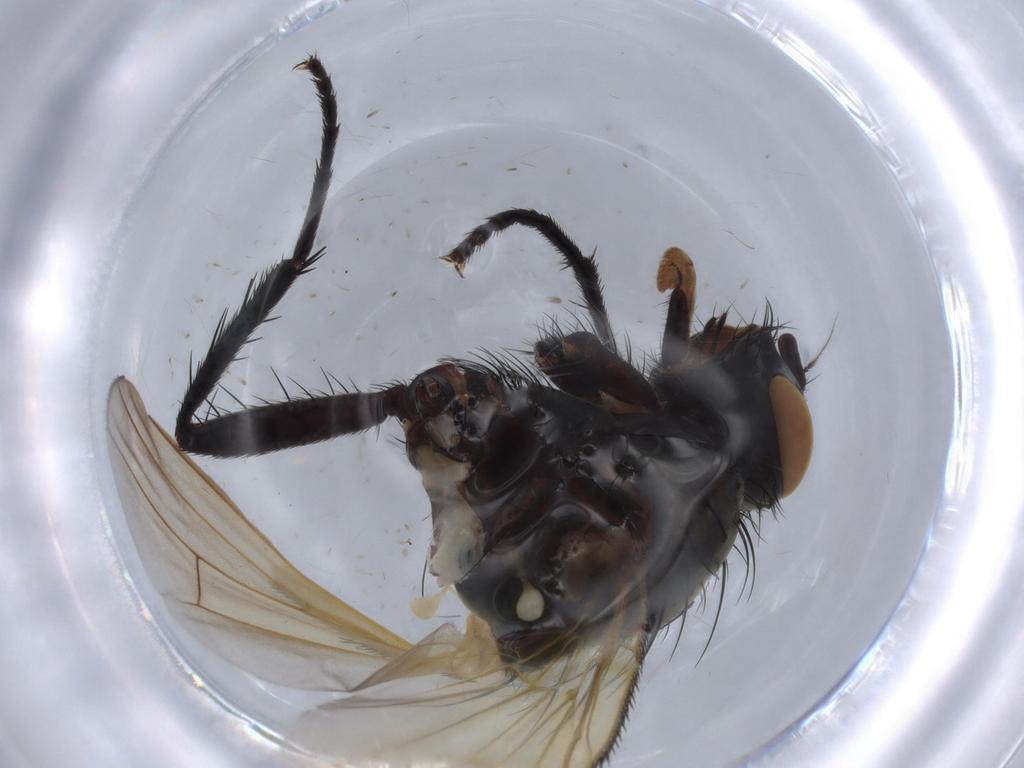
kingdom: Animalia
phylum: Arthropoda
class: Insecta
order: Diptera
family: Anthomyiidae
